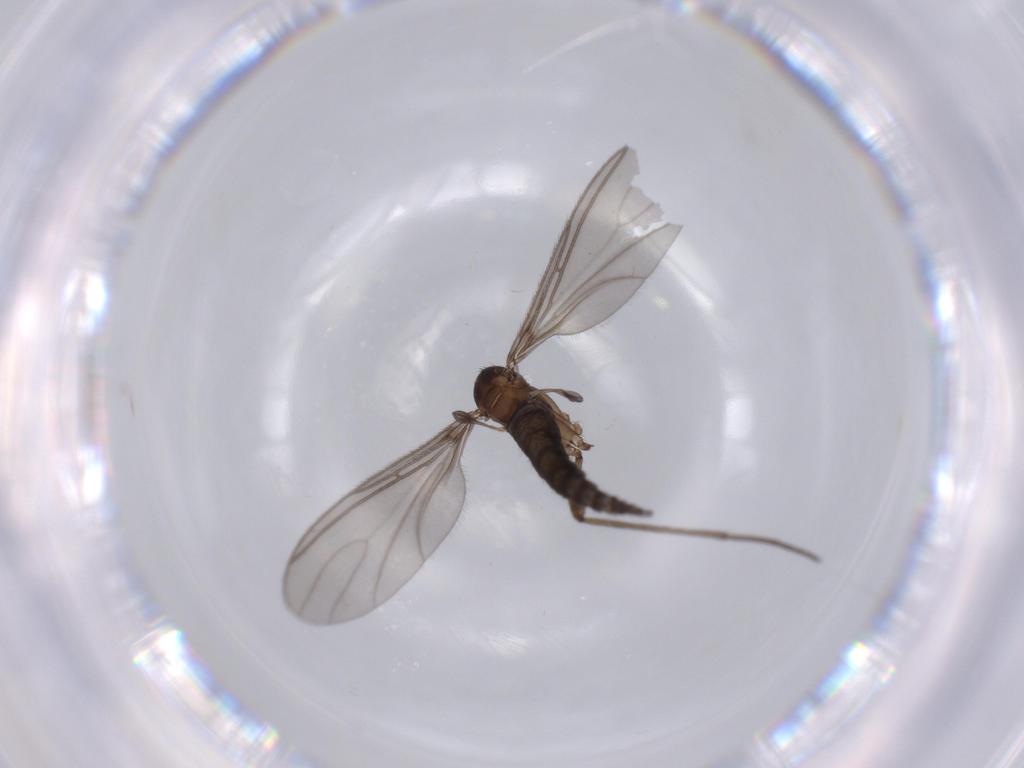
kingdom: Animalia
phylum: Arthropoda
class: Insecta
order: Diptera
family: Sciaridae
